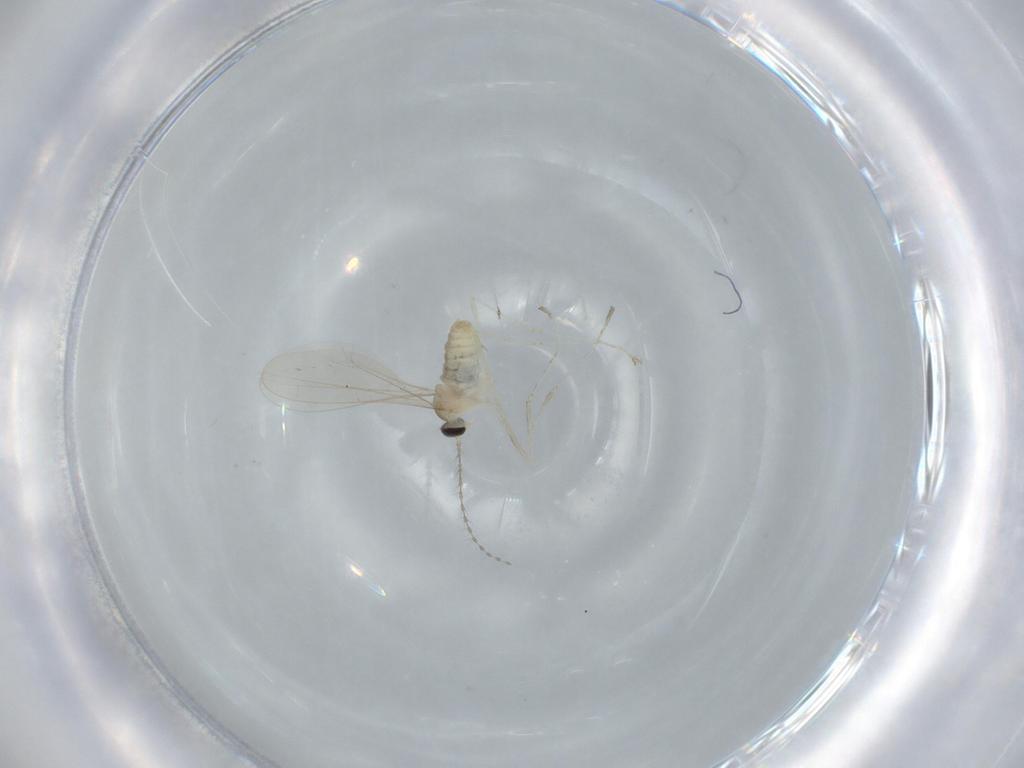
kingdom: Animalia
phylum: Arthropoda
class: Insecta
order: Diptera
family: Cecidomyiidae
